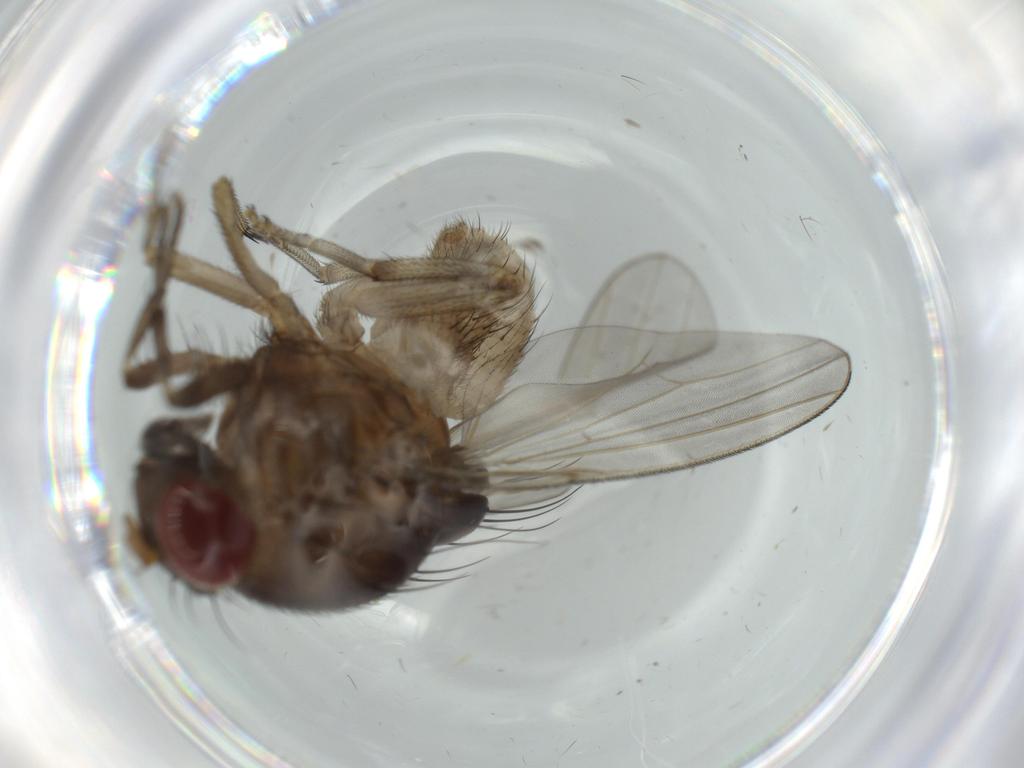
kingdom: Animalia
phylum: Arthropoda
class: Insecta
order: Diptera
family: Lauxaniidae
